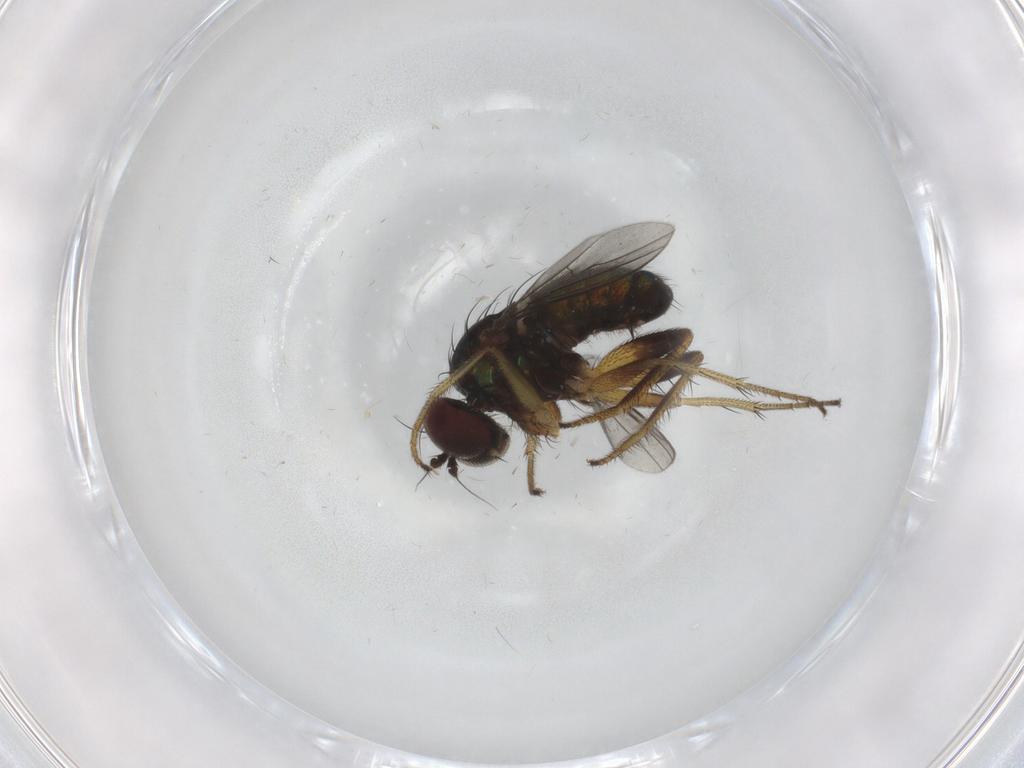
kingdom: Animalia
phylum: Arthropoda
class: Insecta
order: Diptera
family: Dolichopodidae
